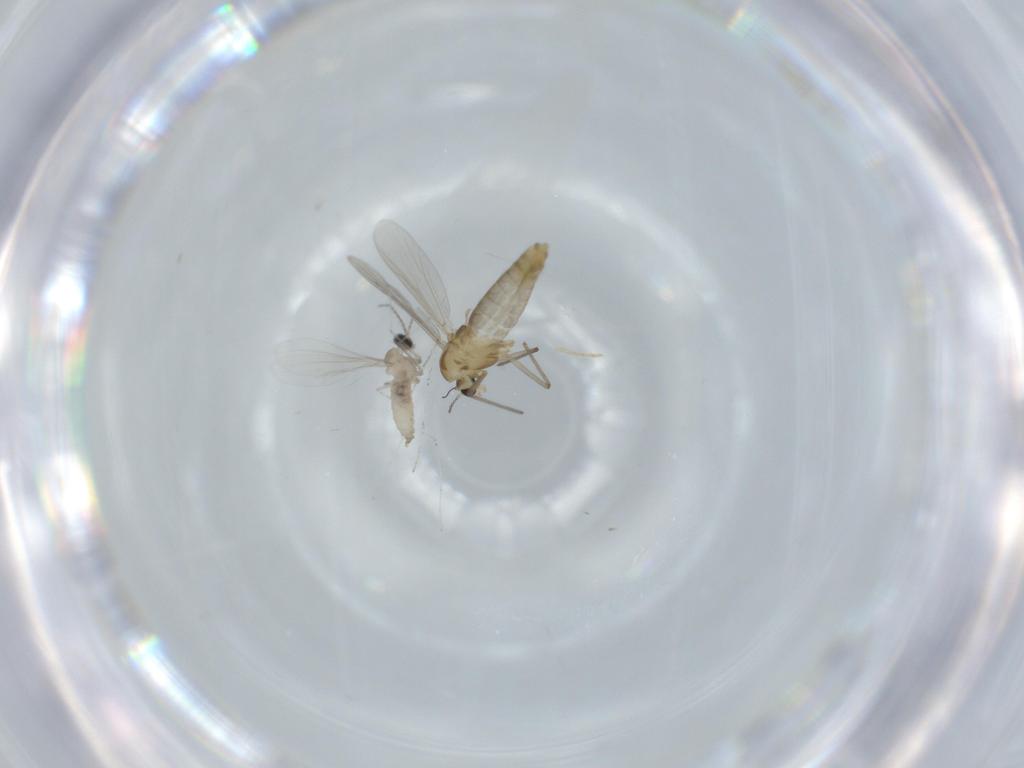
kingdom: Animalia
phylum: Arthropoda
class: Insecta
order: Diptera
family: Chironomidae
